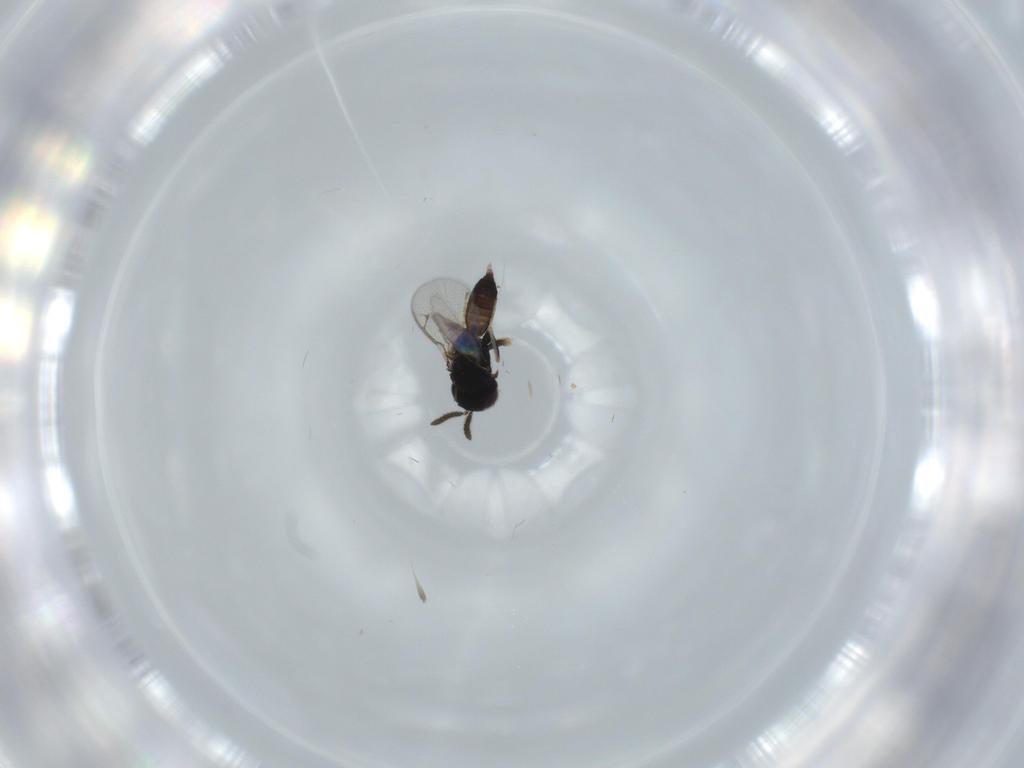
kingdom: Animalia
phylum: Arthropoda
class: Insecta
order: Hymenoptera
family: Pteromalidae
